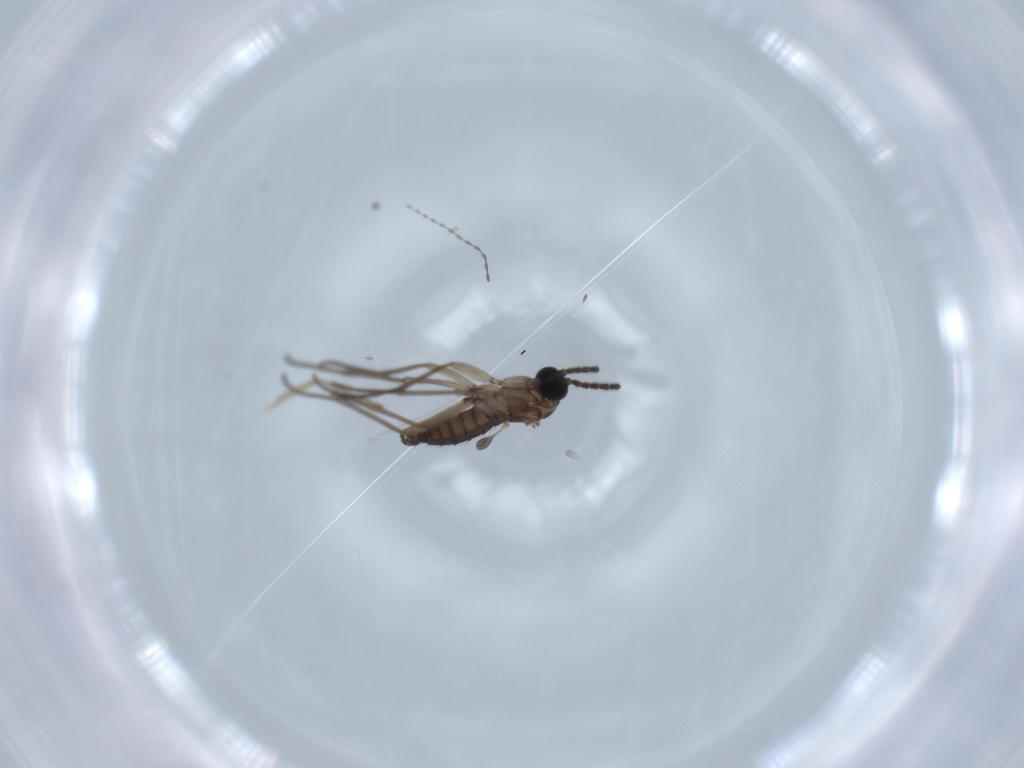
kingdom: Animalia
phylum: Arthropoda
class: Insecta
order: Diptera
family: Sciaridae
